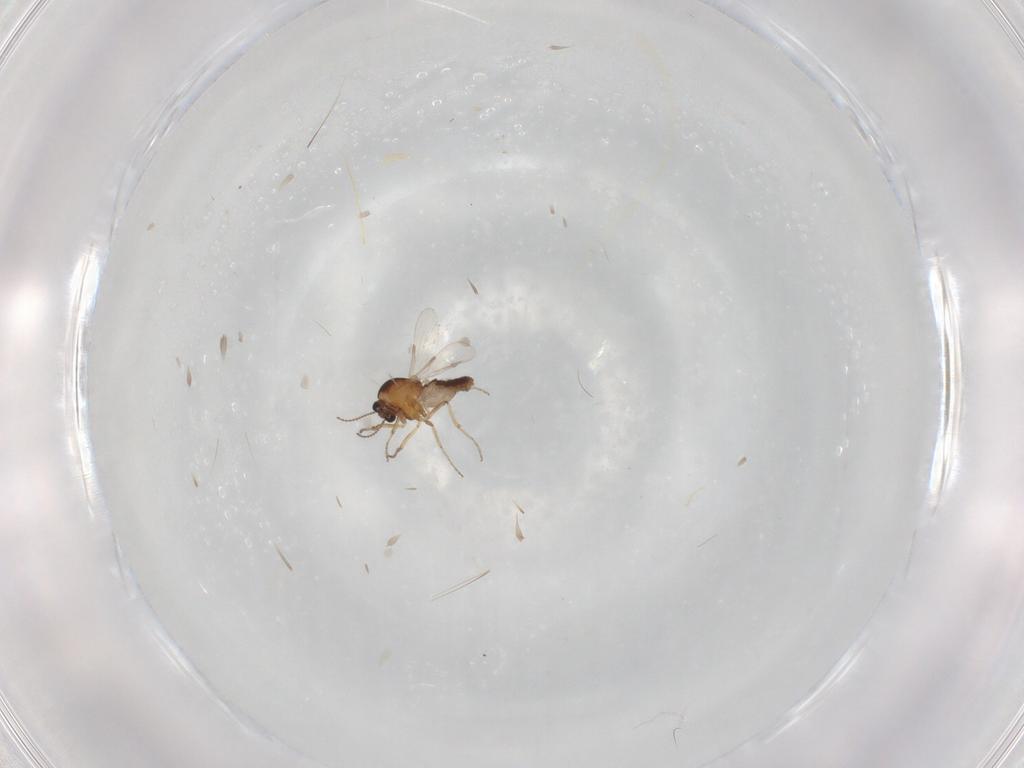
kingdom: Animalia
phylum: Arthropoda
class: Insecta
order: Diptera
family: Ceratopogonidae
